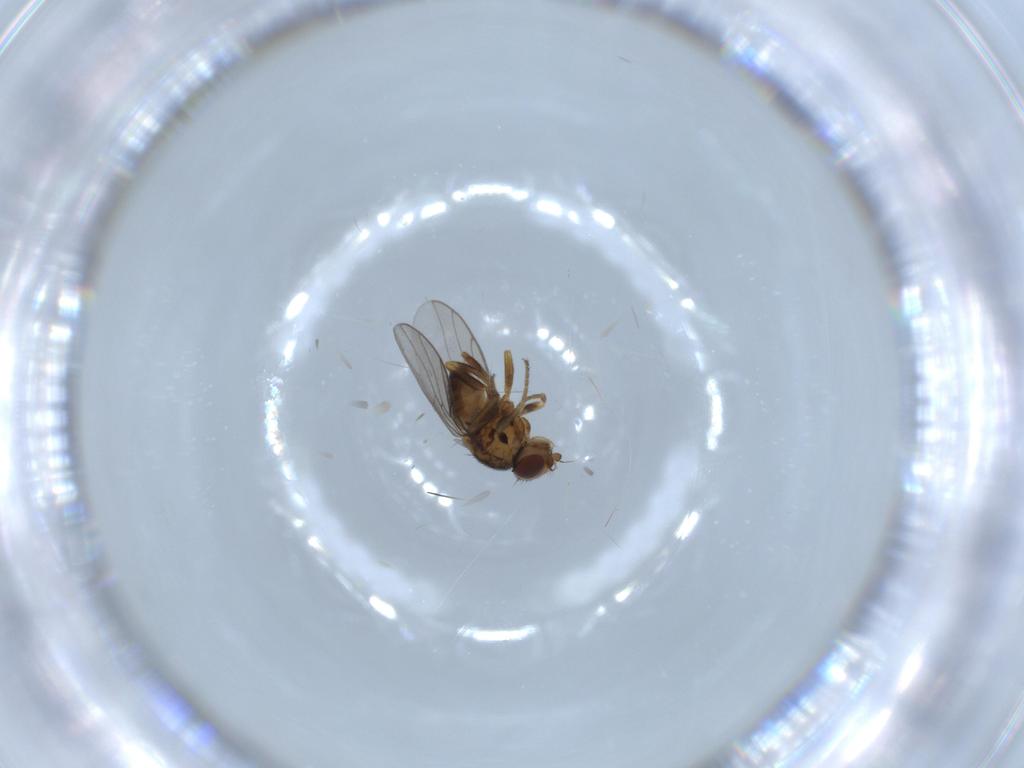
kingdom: Animalia
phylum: Arthropoda
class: Insecta
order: Diptera
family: Chloropidae
